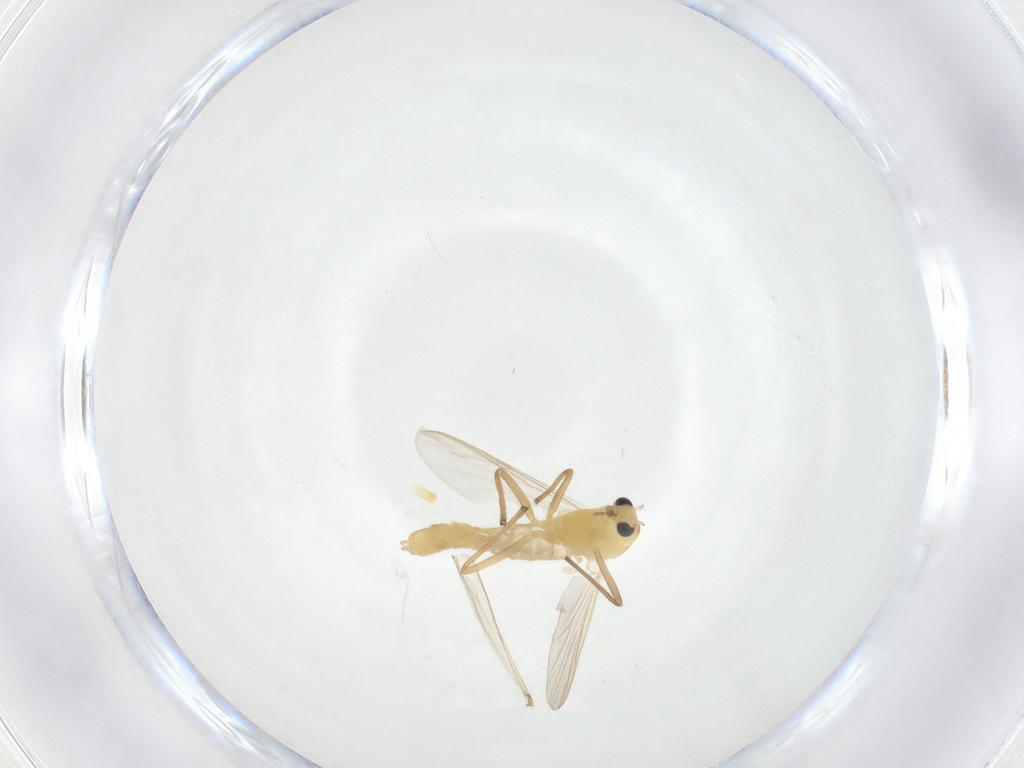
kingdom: Animalia
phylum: Arthropoda
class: Insecta
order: Diptera
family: Chironomidae
